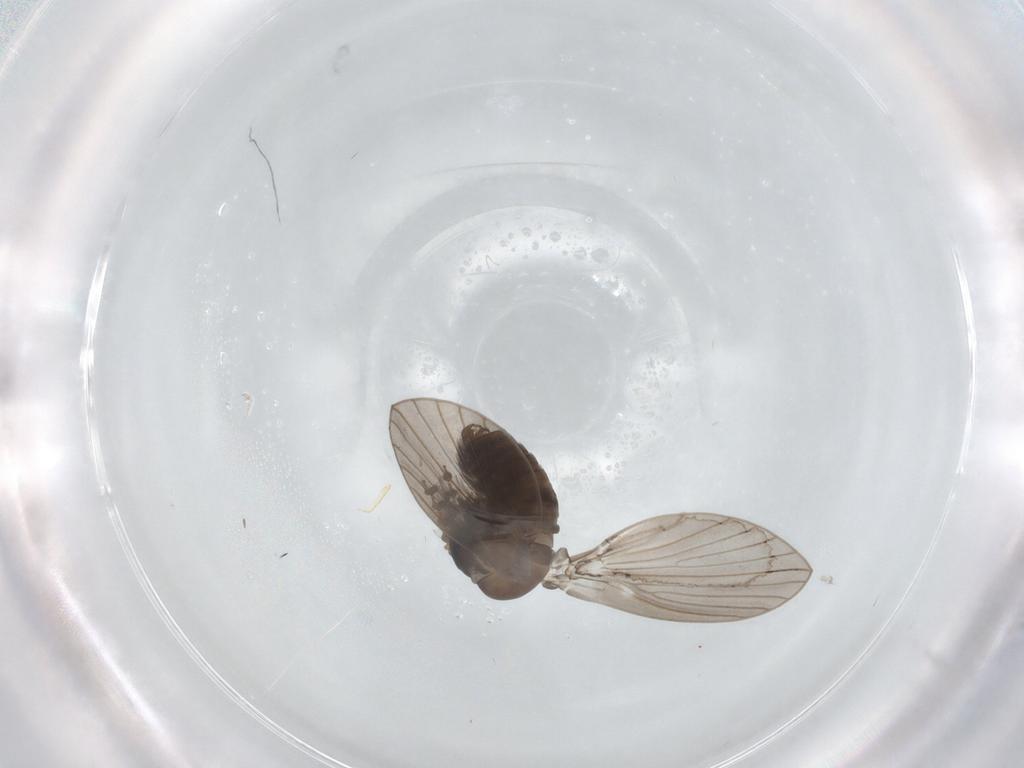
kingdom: Animalia
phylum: Arthropoda
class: Insecta
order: Diptera
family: Psychodidae
